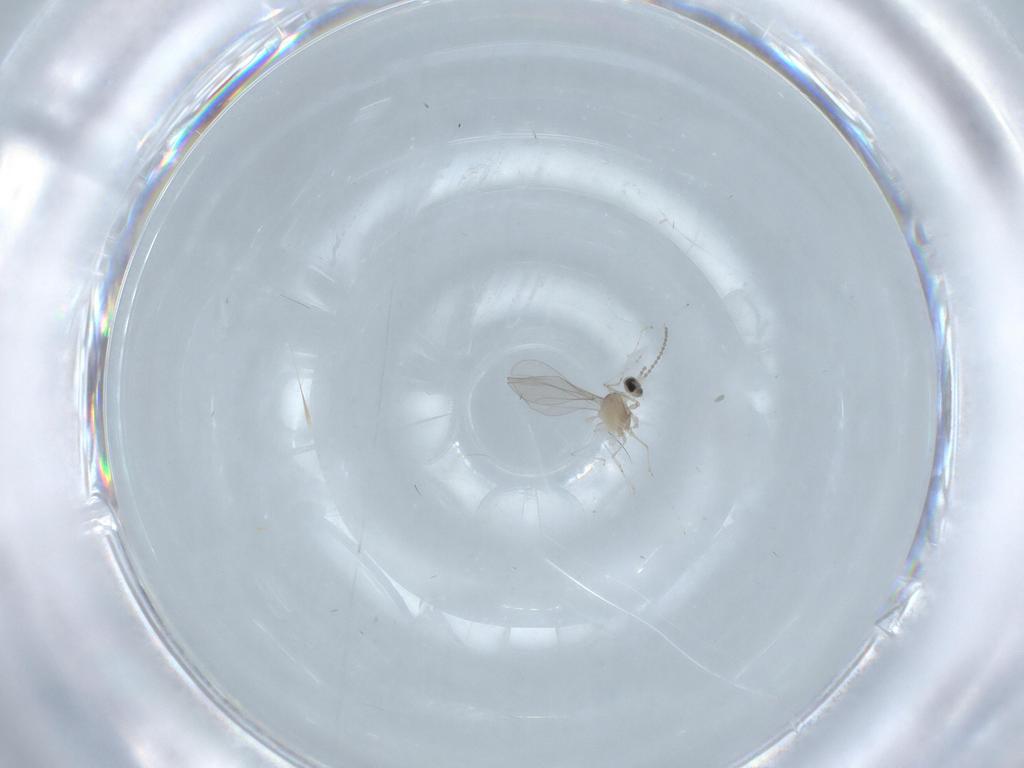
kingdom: Animalia
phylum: Arthropoda
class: Insecta
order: Diptera
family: Cecidomyiidae
